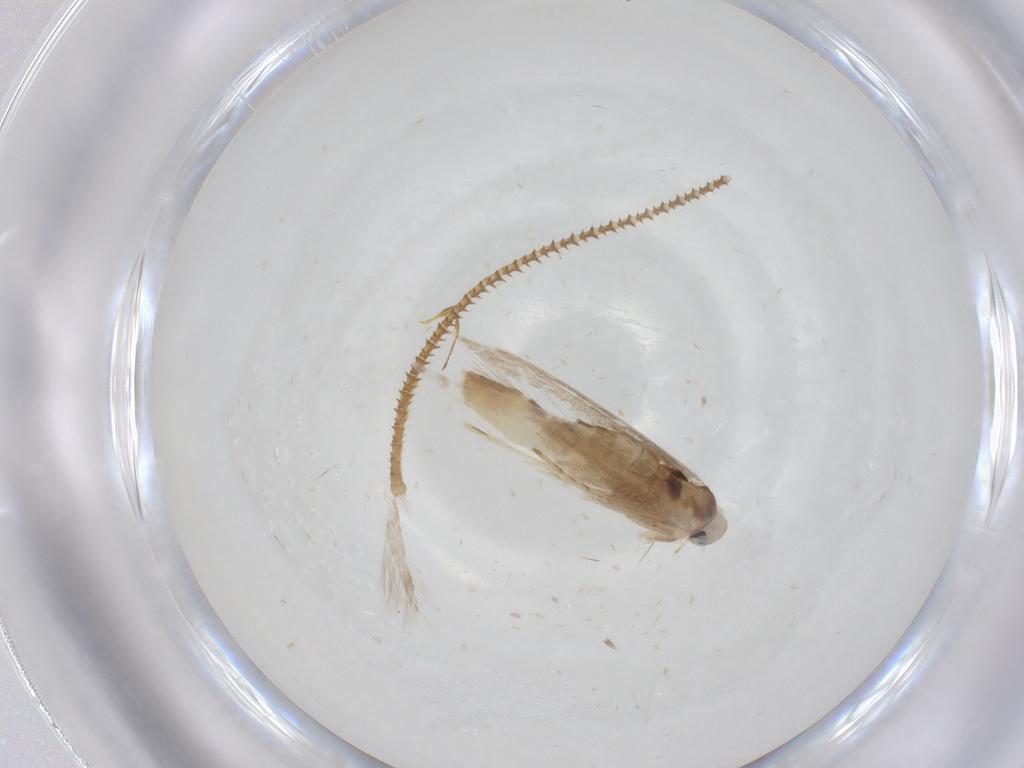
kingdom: Animalia
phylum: Arthropoda
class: Insecta
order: Lepidoptera
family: Gracillariidae
